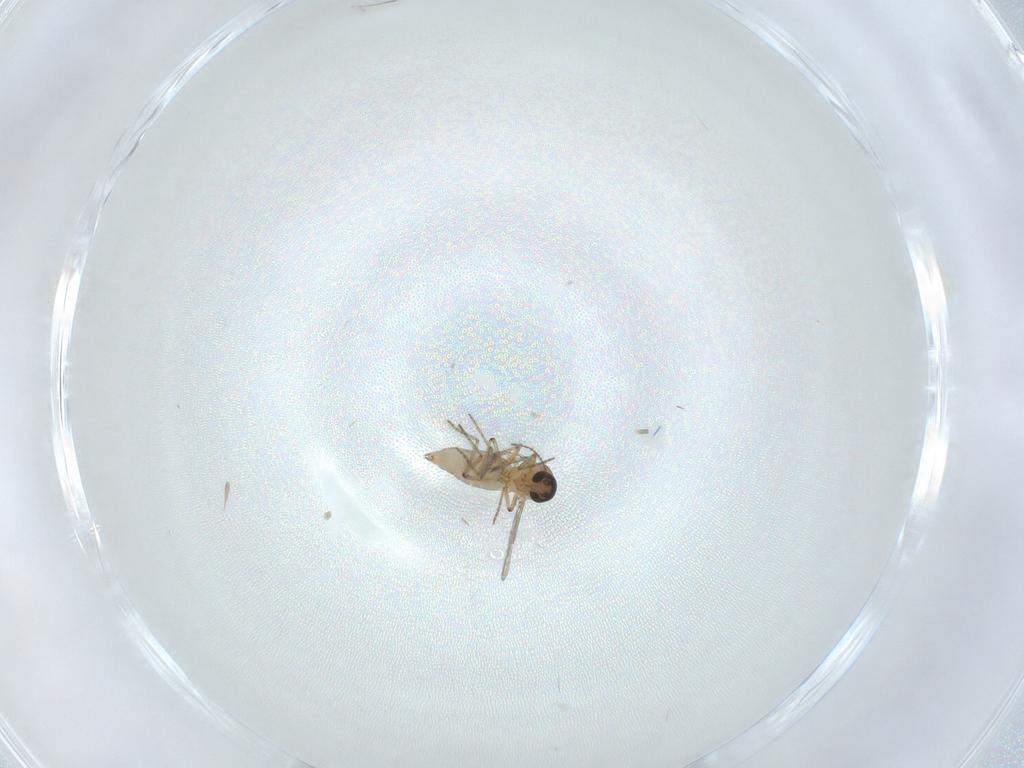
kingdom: Animalia
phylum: Arthropoda
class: Insecta
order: Diptera
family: Ceratopogonidae
